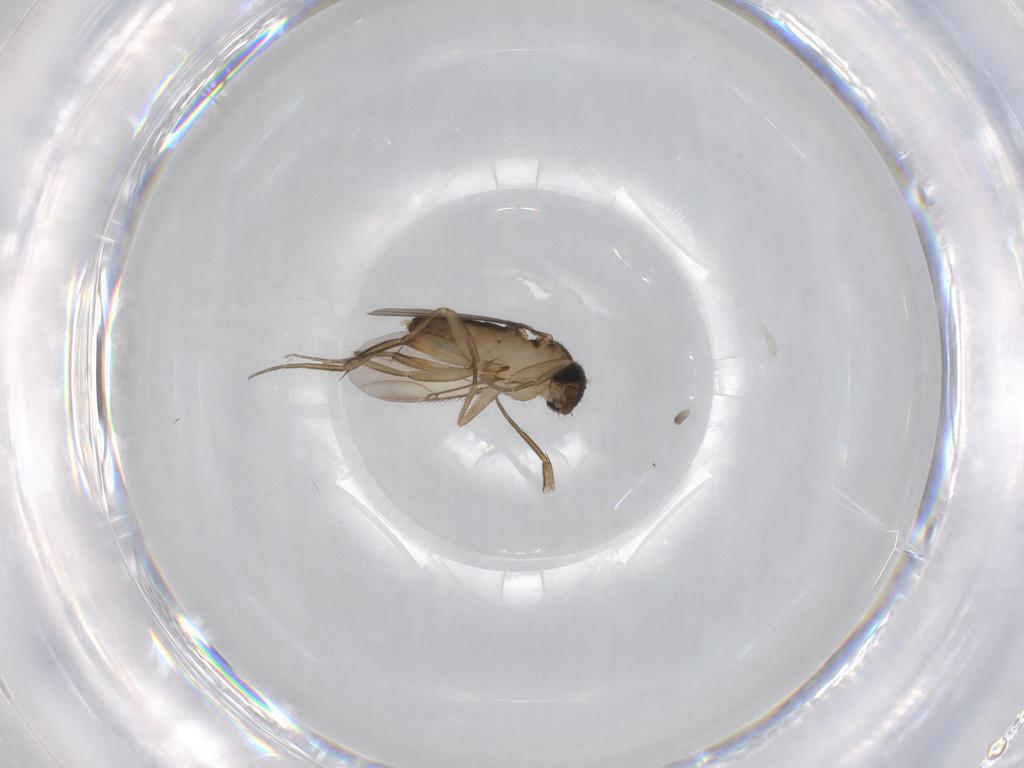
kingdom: Animalia
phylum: Arthropoda
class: Insecta
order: Diptera
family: Phoridae
